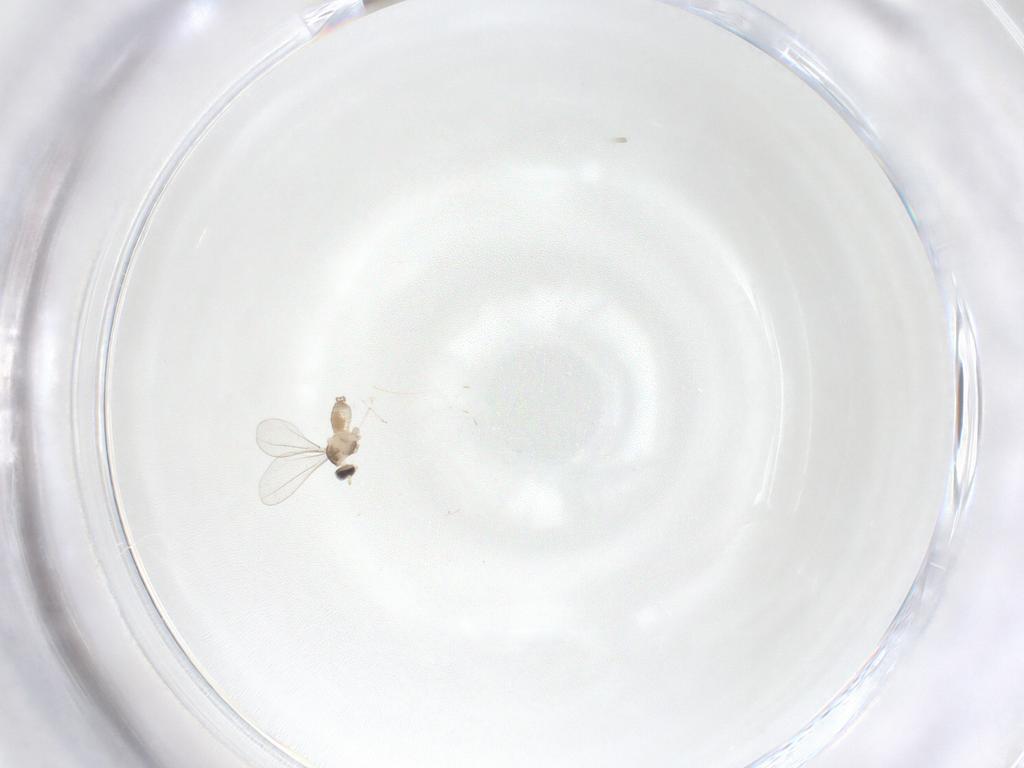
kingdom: Animalia
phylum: Arthropoda
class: Insecta
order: Diptera
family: Cecidomyiidae
